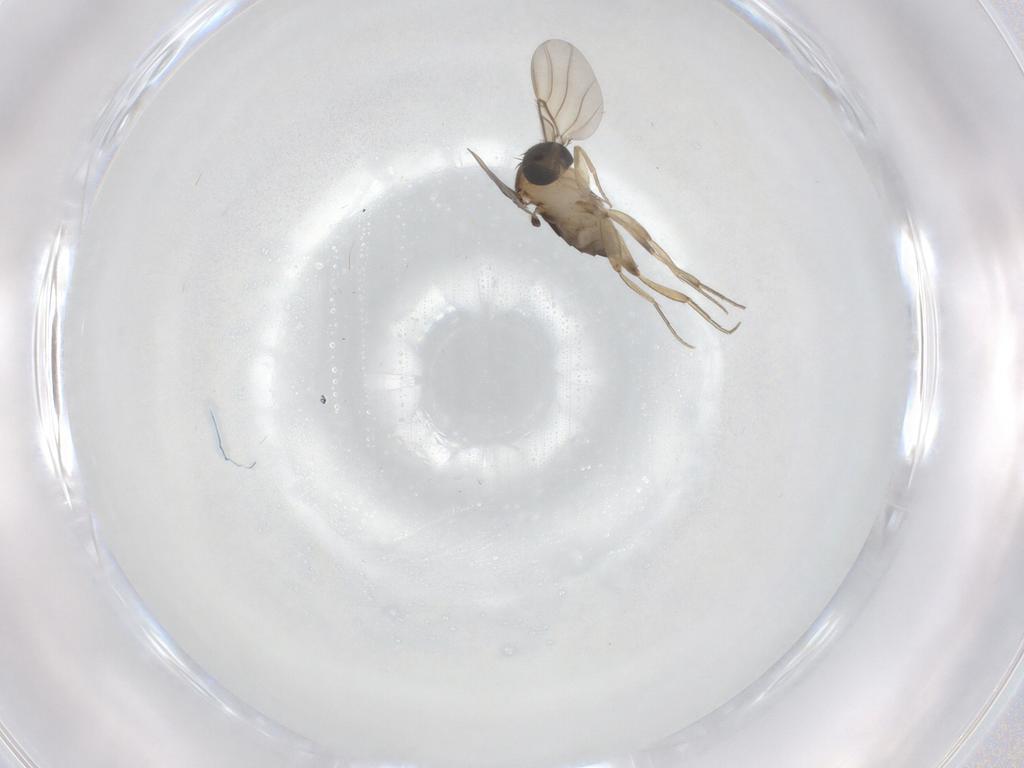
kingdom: Animalia
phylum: Arthropoda
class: Insecta
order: Diptera
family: Phoridae
